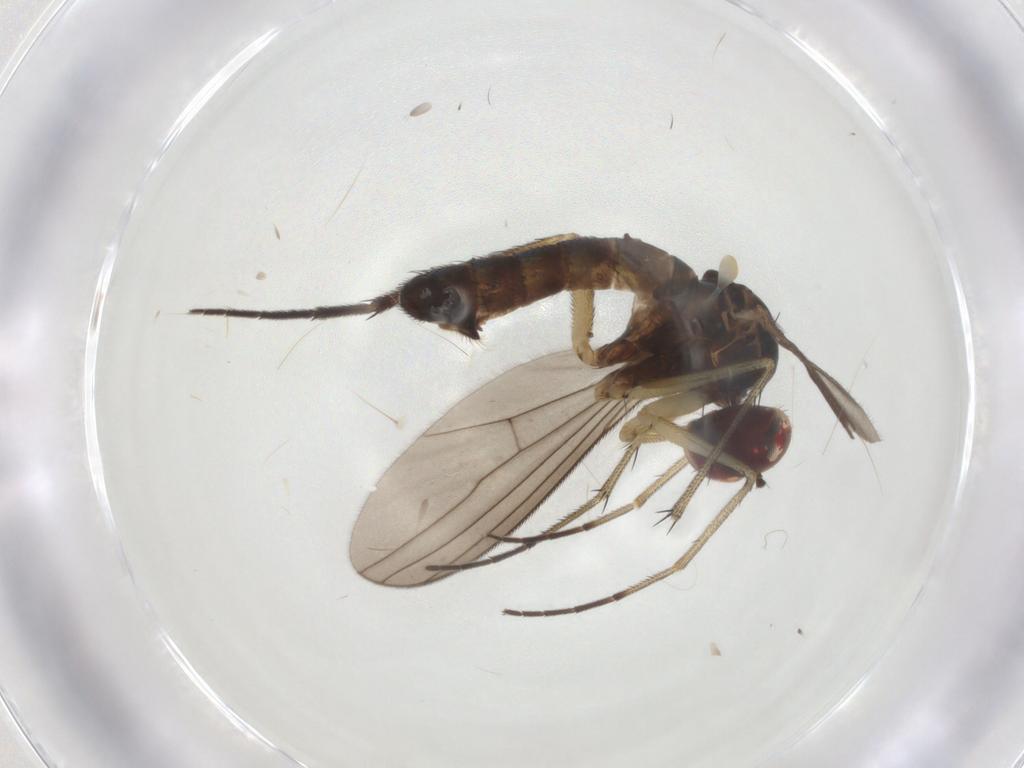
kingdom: Animalia
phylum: Arthropoda
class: Insecta
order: Diptera
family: Dolichopodidae
